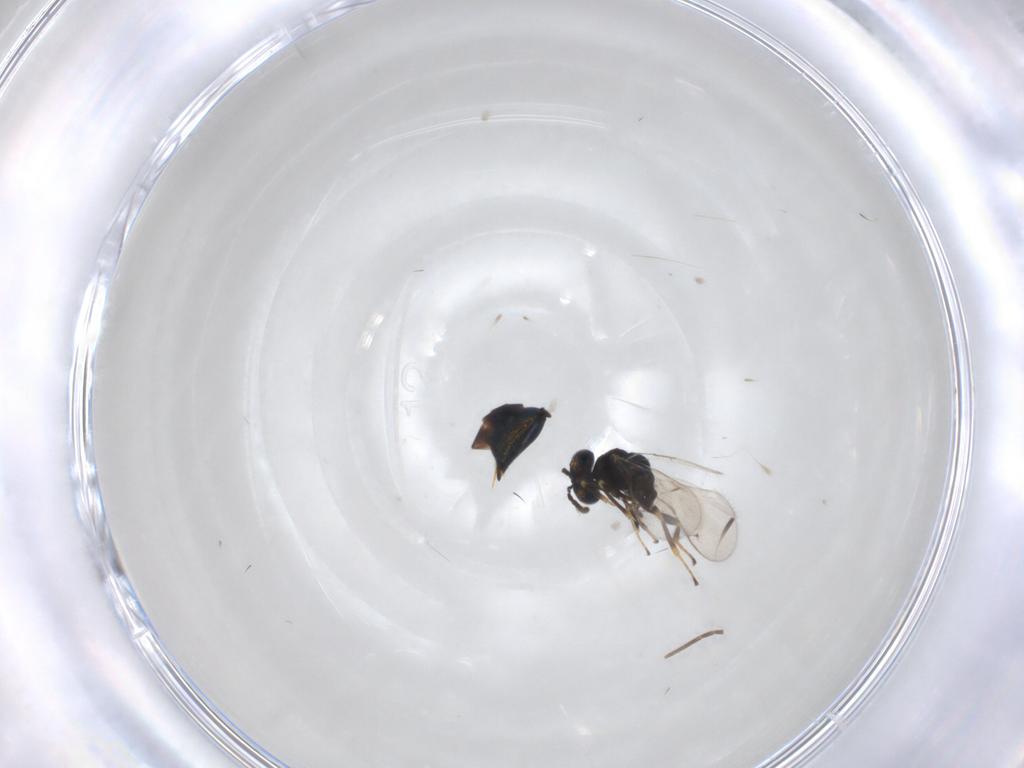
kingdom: Animalia
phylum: Arthropoda
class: Insecta
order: Hymenoptera
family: Pteromalidae
